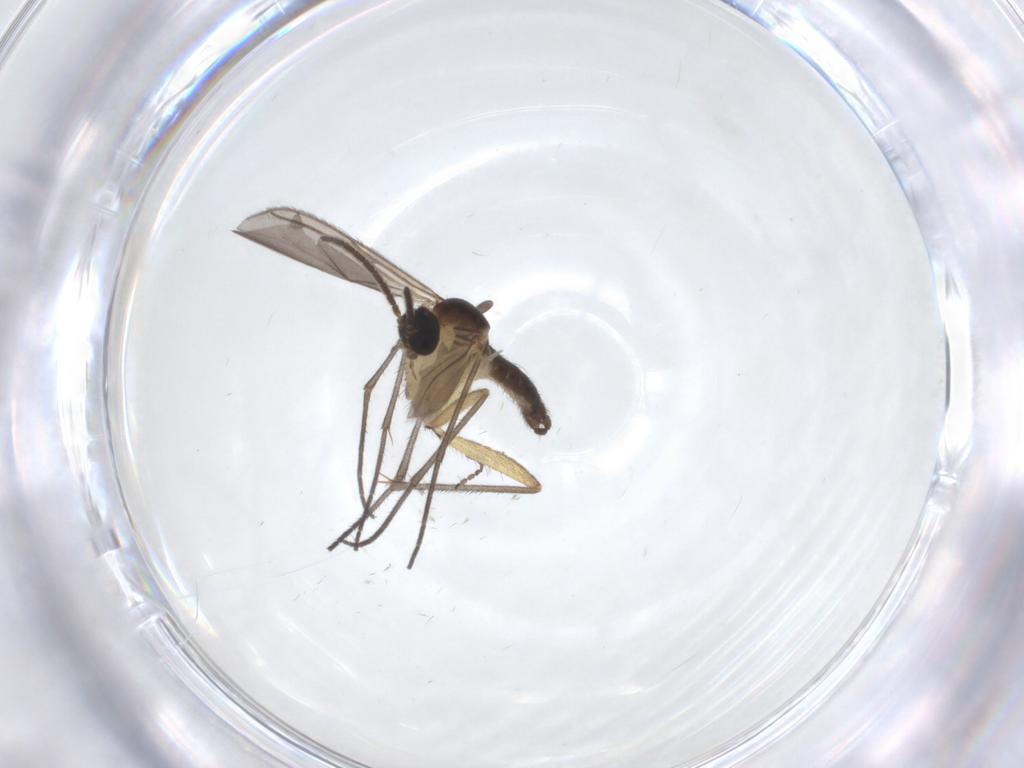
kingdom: Animalia
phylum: Arthropoda
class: Insecta
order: Diptera
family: Sciaridae
